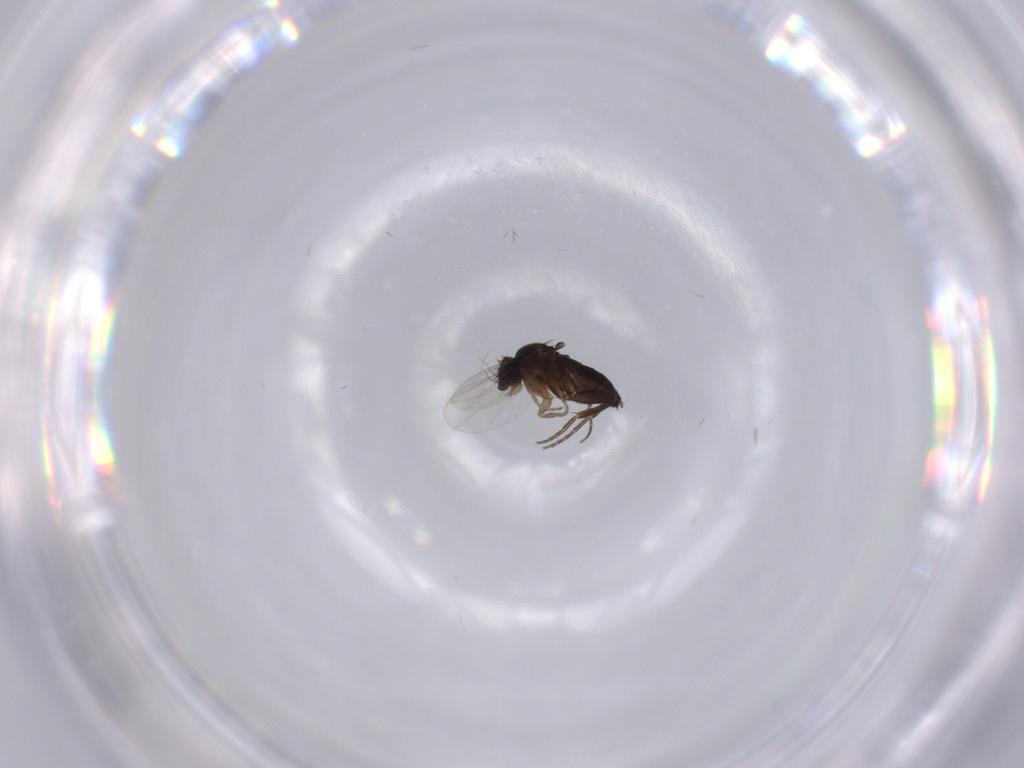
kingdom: Animalia
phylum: Arthropoda
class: Insecta
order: Diptera
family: Phoridae
